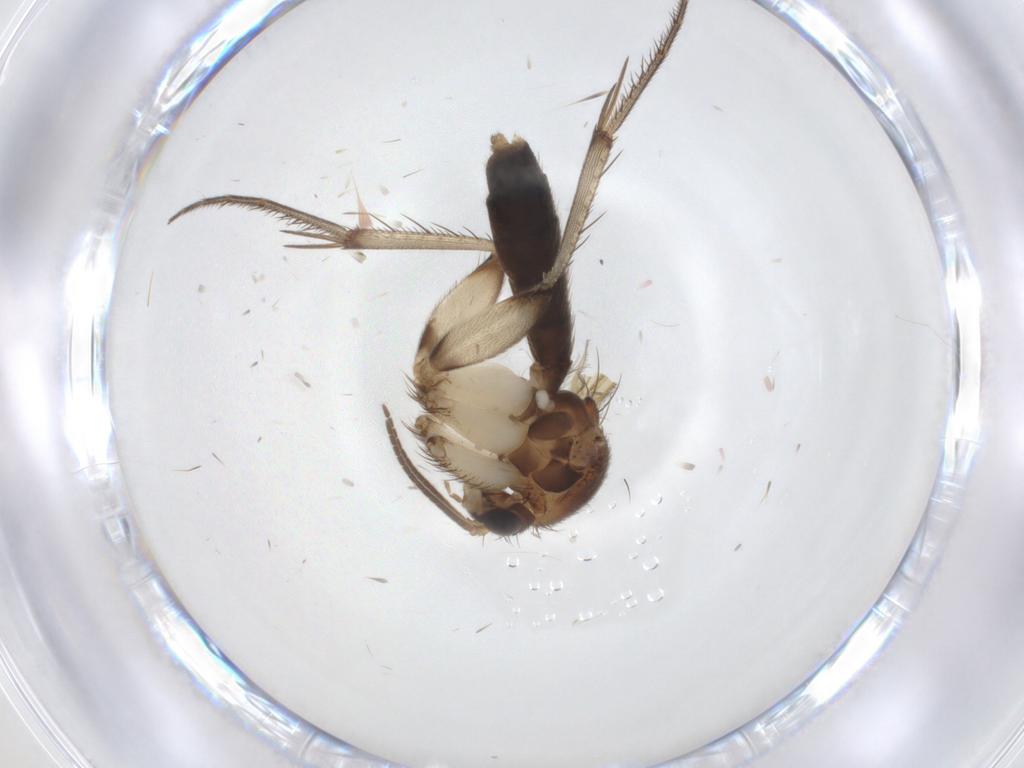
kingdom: Animalia
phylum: Arthropoda
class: Insecta
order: Diptera
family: Mycetophilidae
